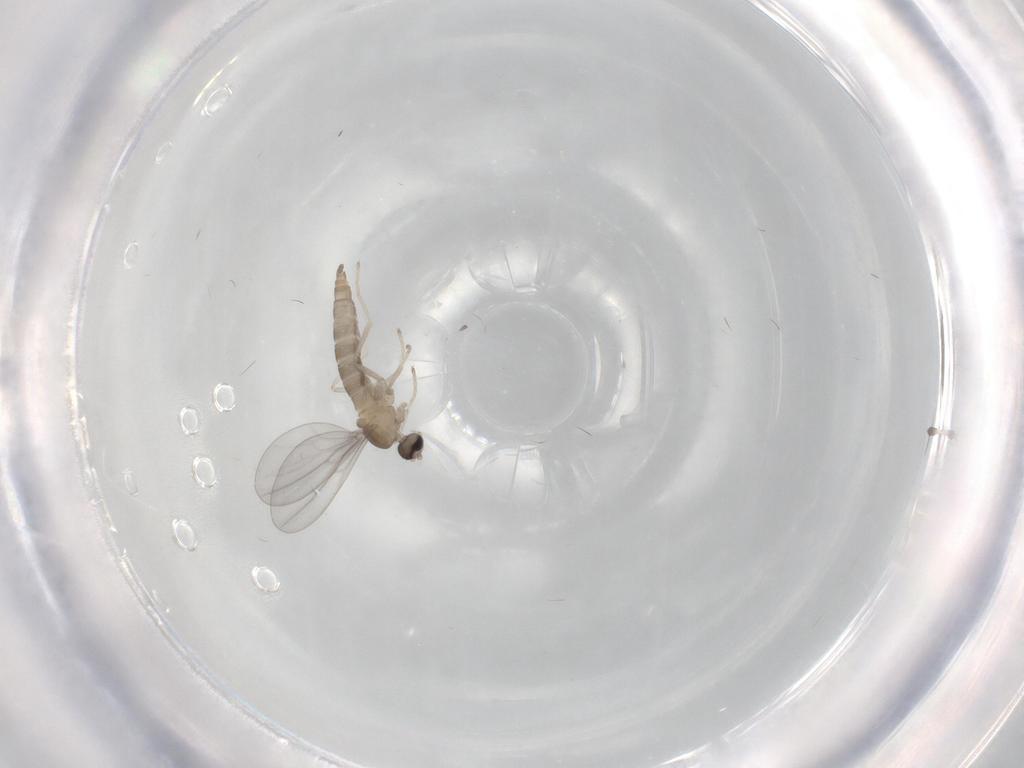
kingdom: Animalia
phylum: Arthropoda
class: Insecta
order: Diptera
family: Cecidomyiidae
